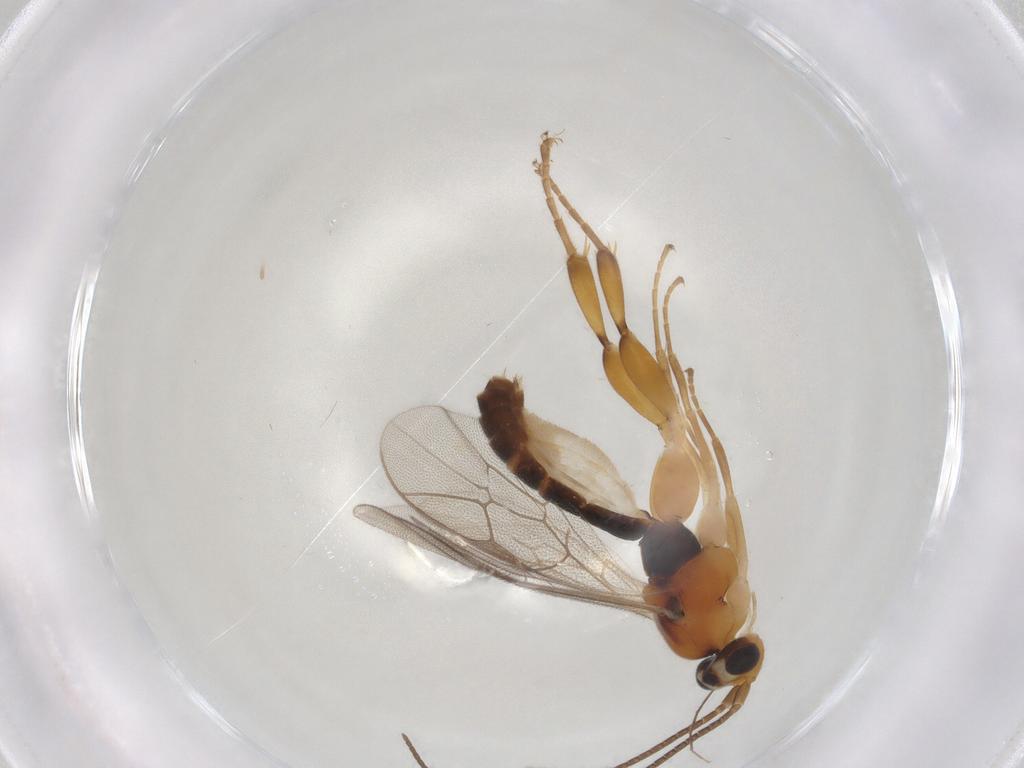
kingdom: Animalia
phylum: Arthropoda
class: Insecta
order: Hymenoptera
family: Ichneumonidae
